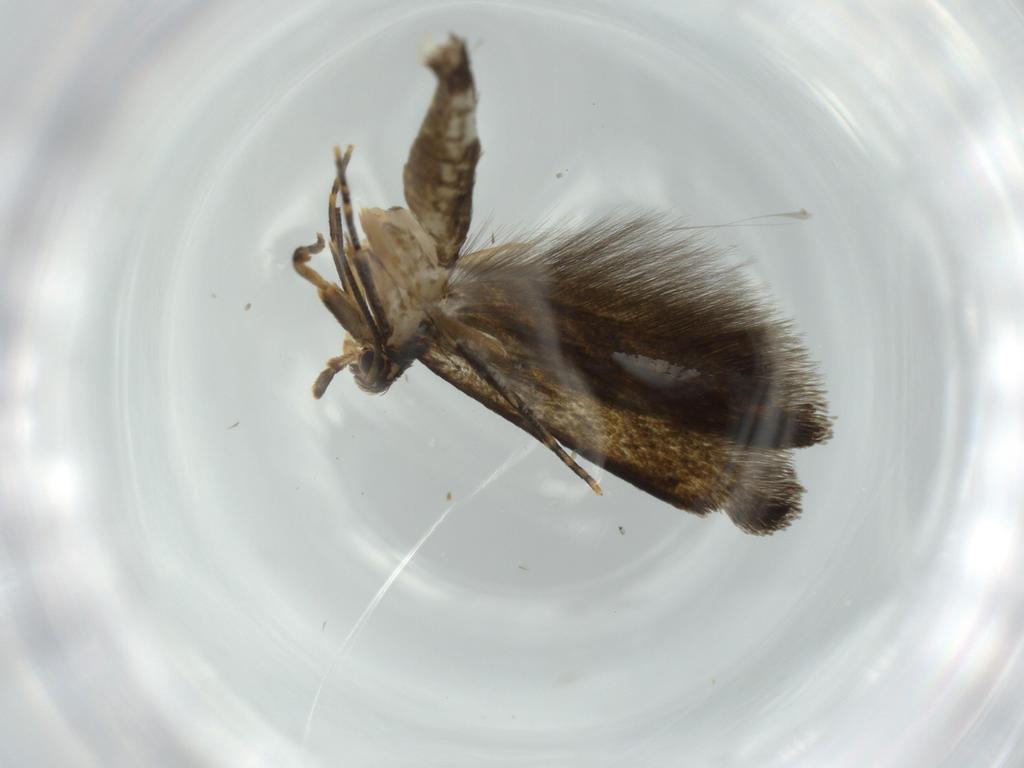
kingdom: Animalia
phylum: Arthropoda
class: Insecta
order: Lepidoptera
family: Tineidae
